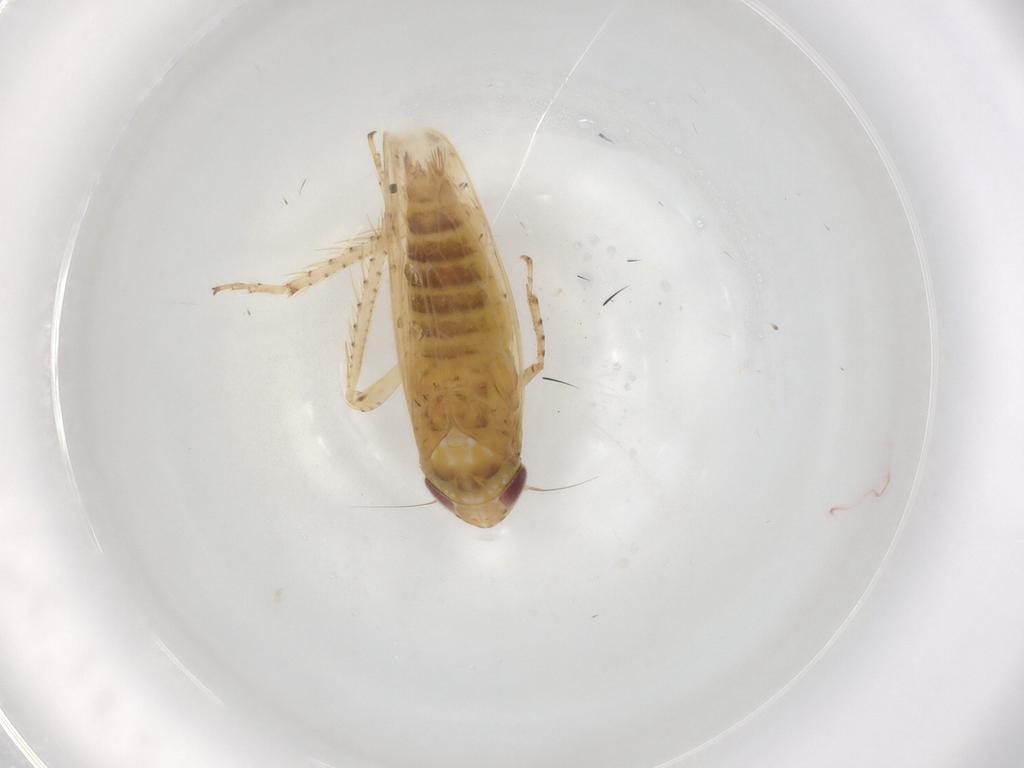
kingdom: Animalia
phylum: Arthropoda
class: Insecta
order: Hemiptera
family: Cicadellidae
